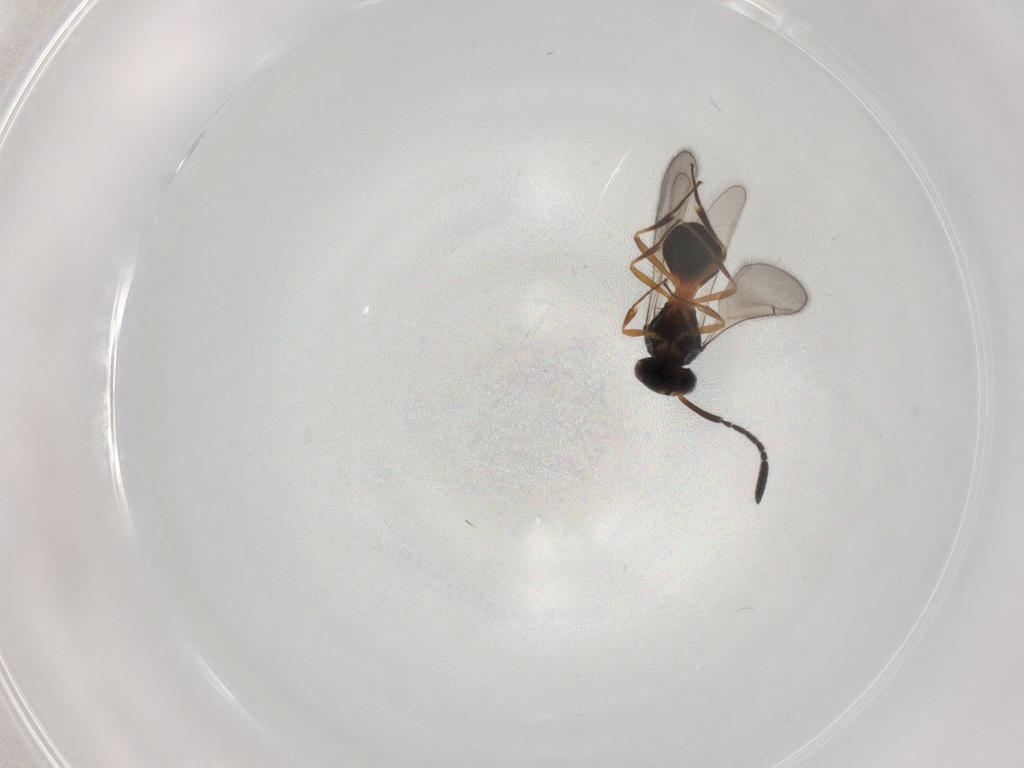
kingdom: Animalia
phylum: Arthropoda
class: Insecta
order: Hymenoptera
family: Scelionidae
